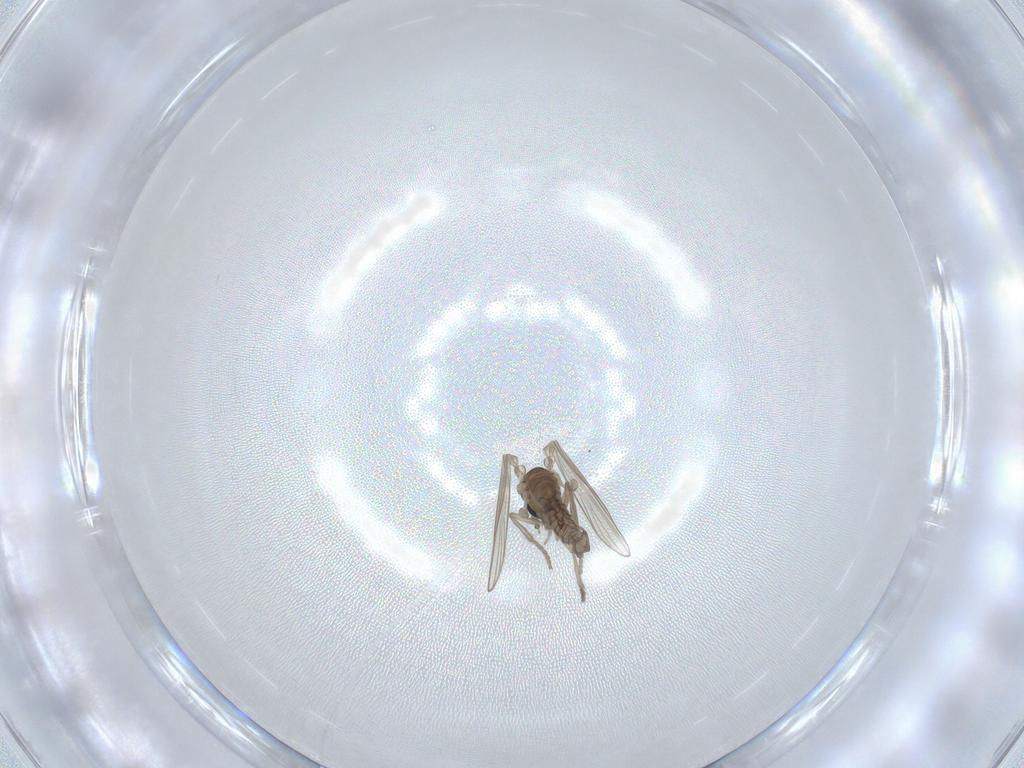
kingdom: Animalia
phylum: Arthropoda
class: Insecta
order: Diptera
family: Psychodidae
